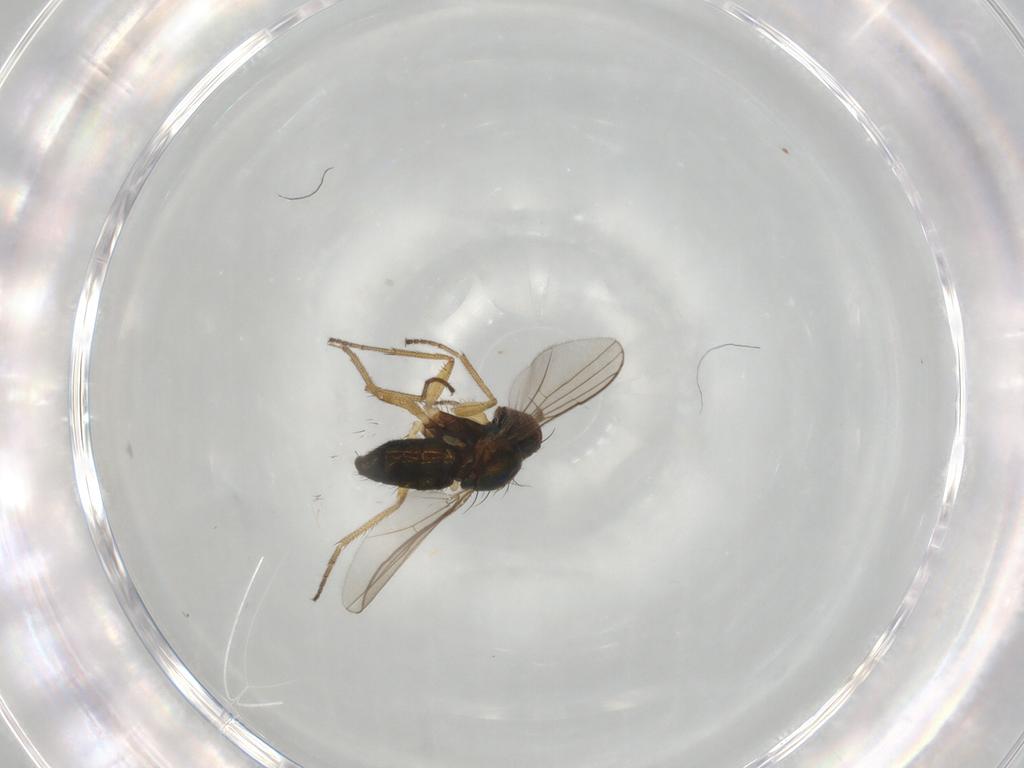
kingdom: Animalia
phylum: Arthropoda
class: Insecta
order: Diptera
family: Dolichopodidae
